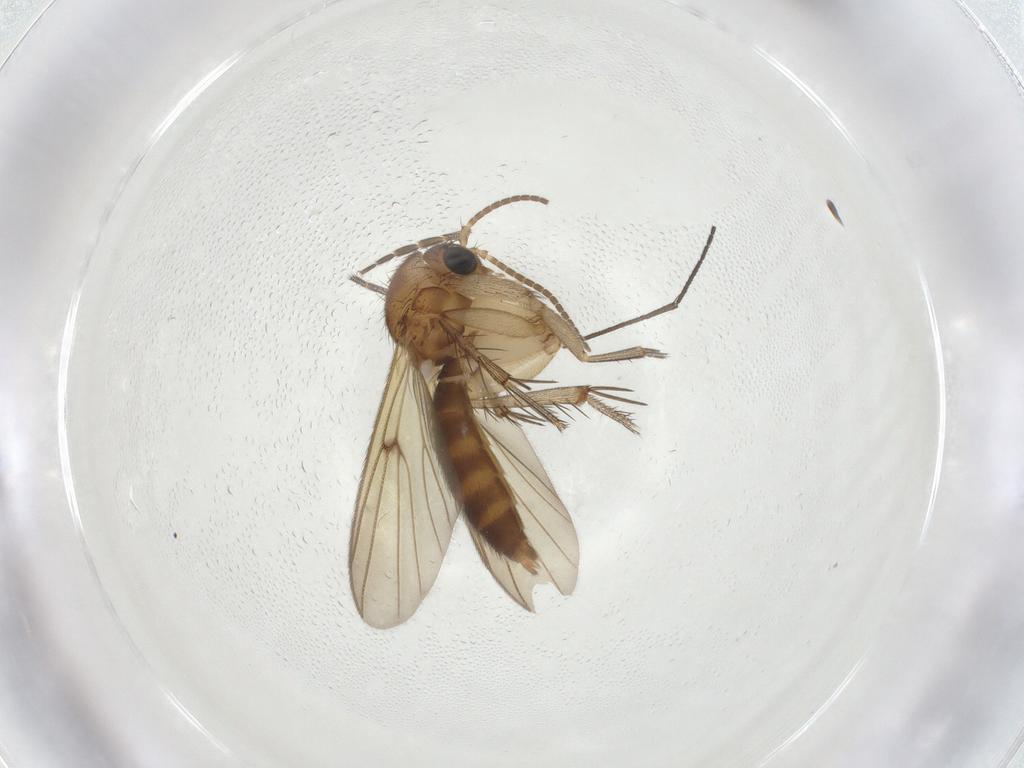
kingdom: Animalia
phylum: Arthropoda
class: Insecta
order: Diptera
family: Mycetophilidae
